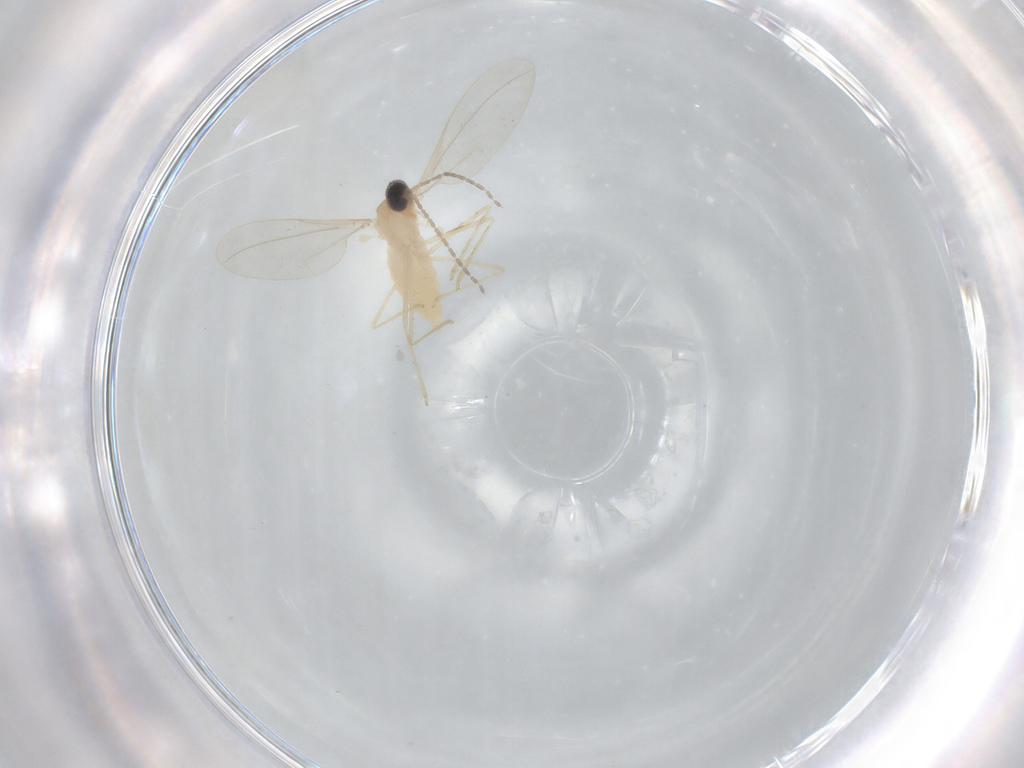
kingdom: Animalia
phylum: Arthropoda
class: Insecta
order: Diptera
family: Cecidomyiidae
